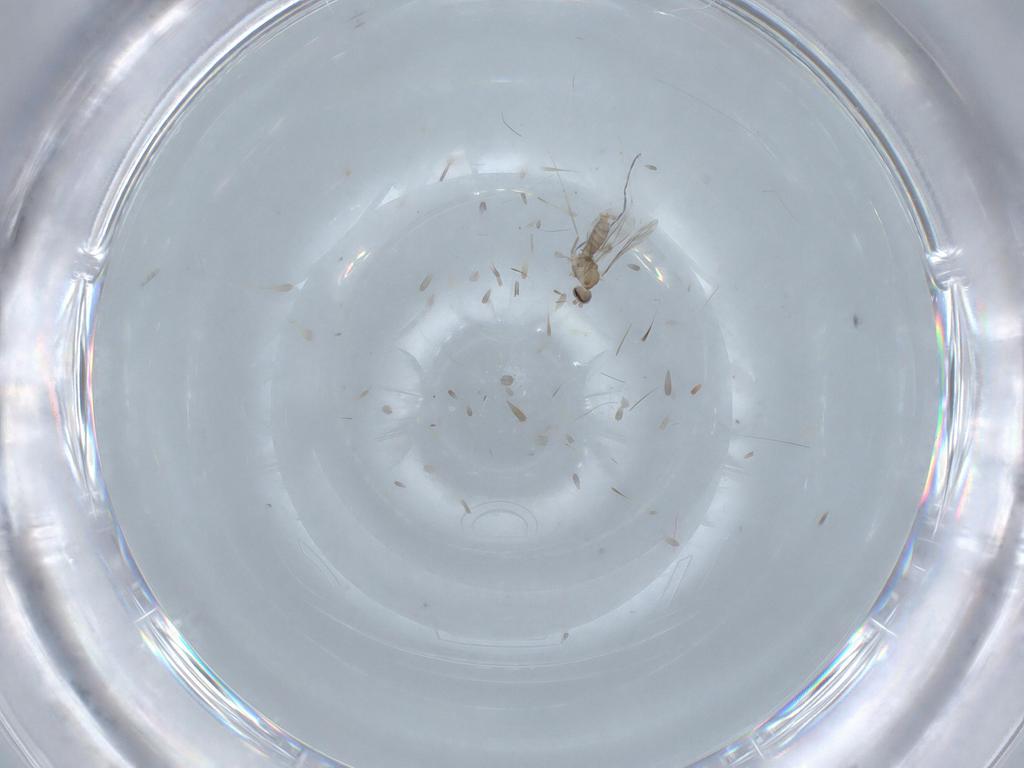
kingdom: Animalia
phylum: Arthropoda
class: Insecta
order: Diptera
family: Cecidomyiidae
